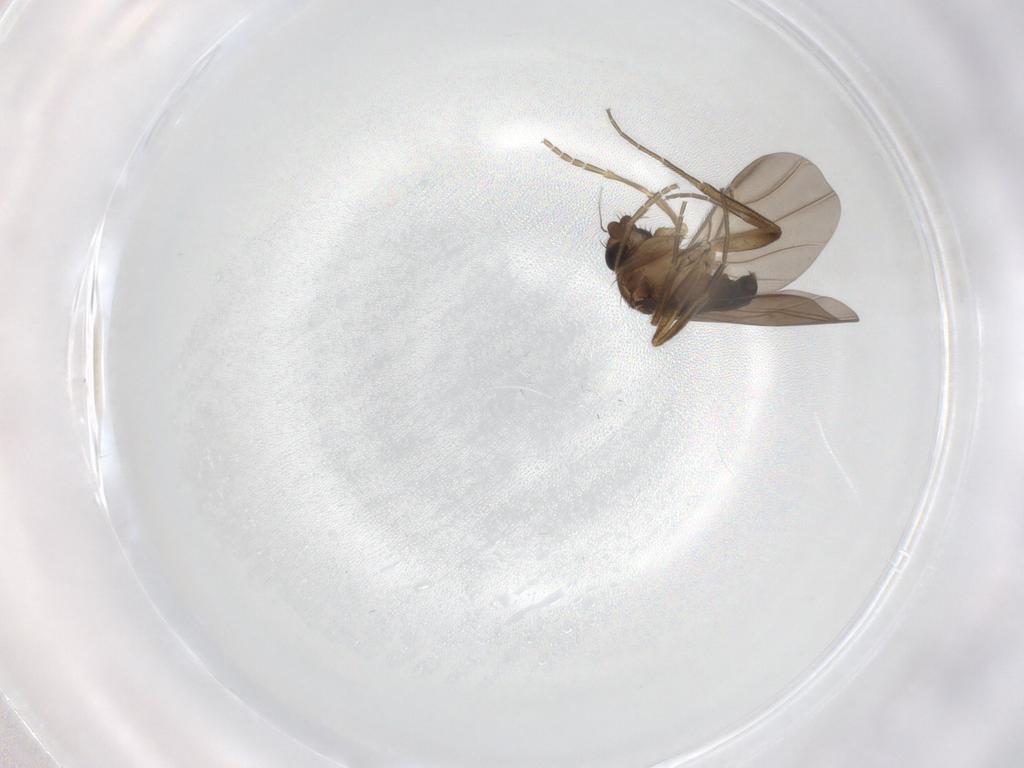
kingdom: Animalia
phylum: Arthropoda
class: Insecta
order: Diptera
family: Phoridae
